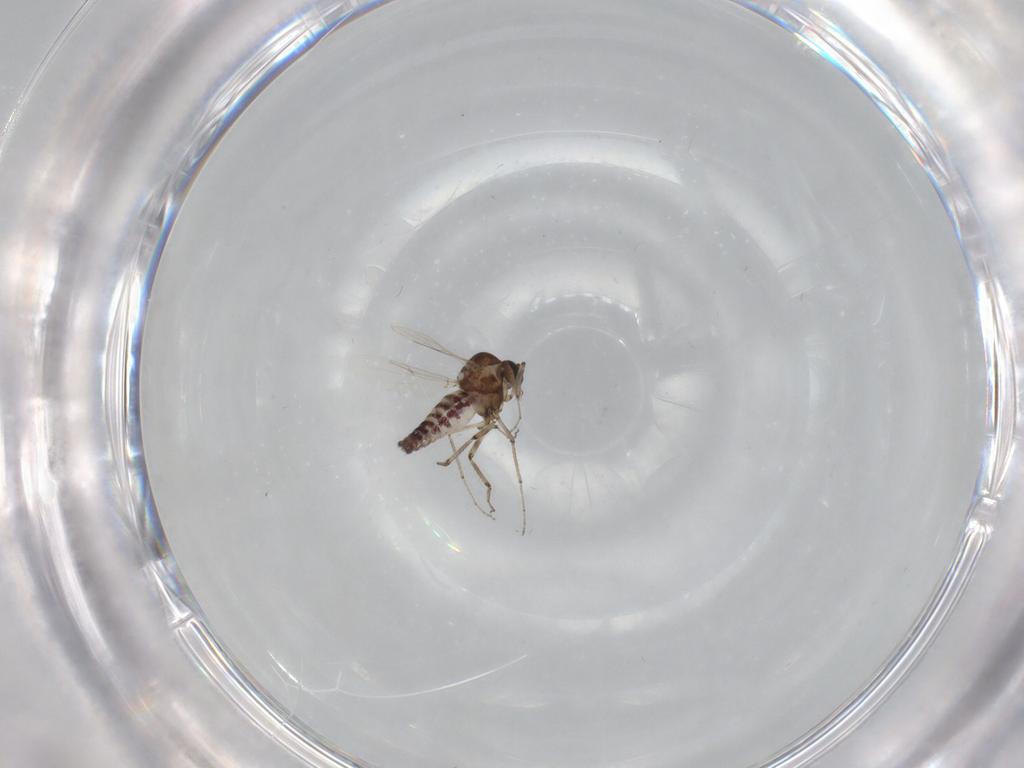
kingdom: Animalia
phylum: Arthropoda
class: Insecta
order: Diptera
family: Ceratopogonidae
